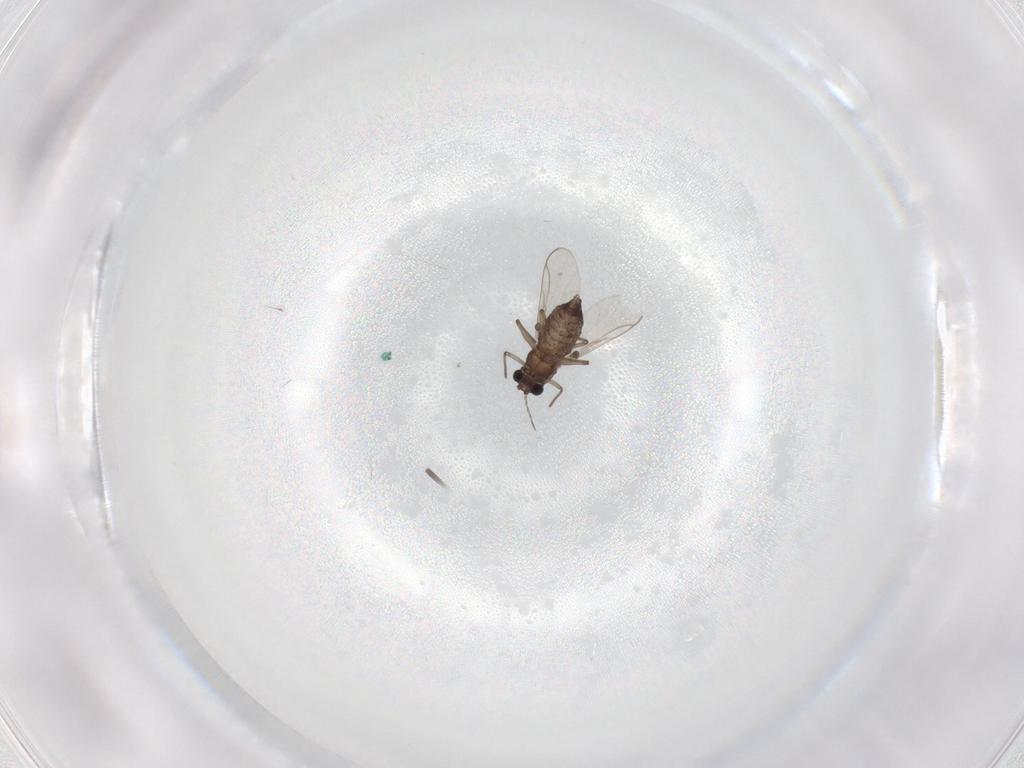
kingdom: Animalia
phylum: Arthropoda
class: Insecta
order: Diptera
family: Chironomidae
